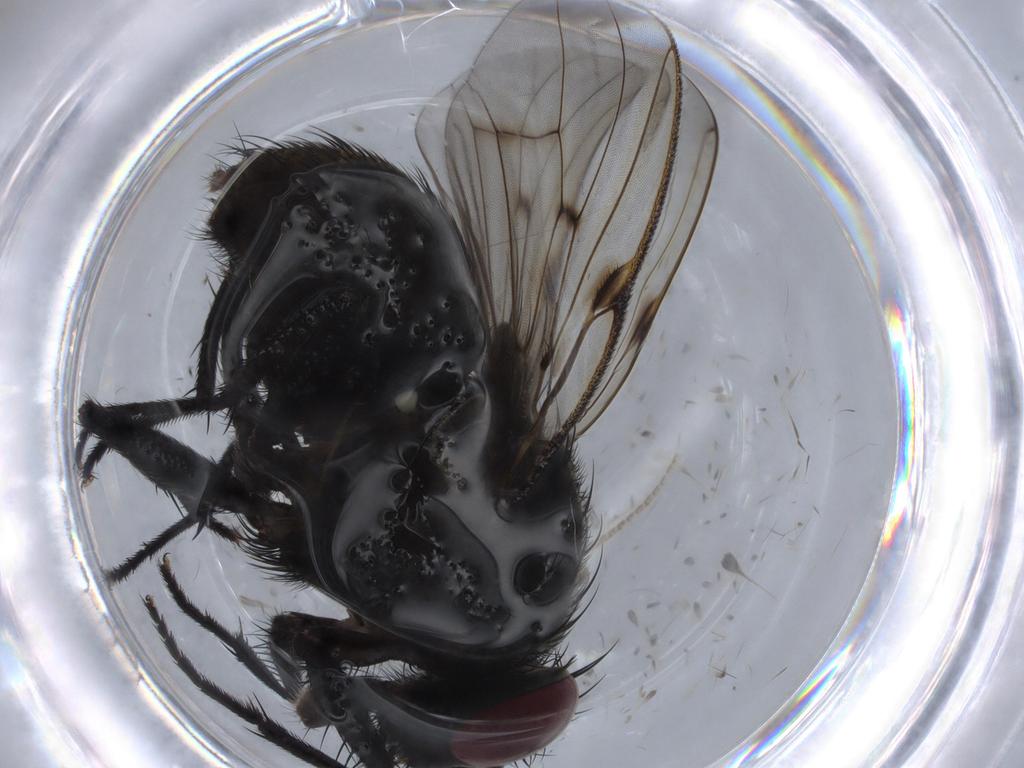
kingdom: Animalia
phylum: Arthropoda
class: Insecta
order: Diptera
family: Muscidae
